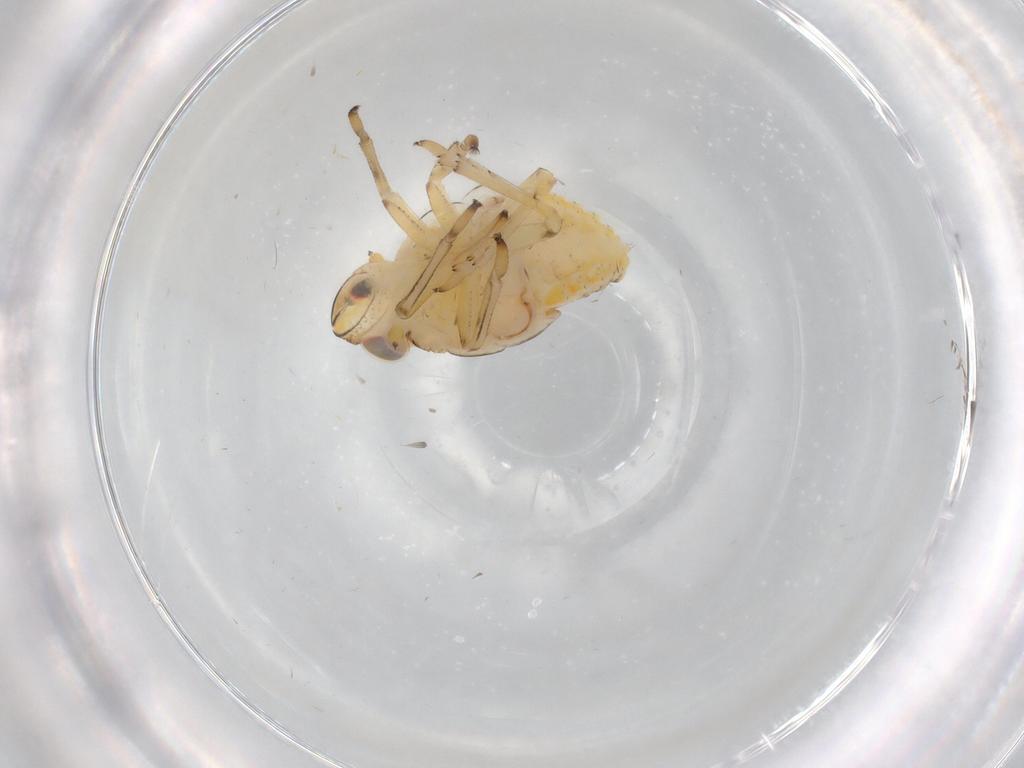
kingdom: Animalia
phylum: Arthropoda
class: Insecta
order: Hemiptera
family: Issidae
